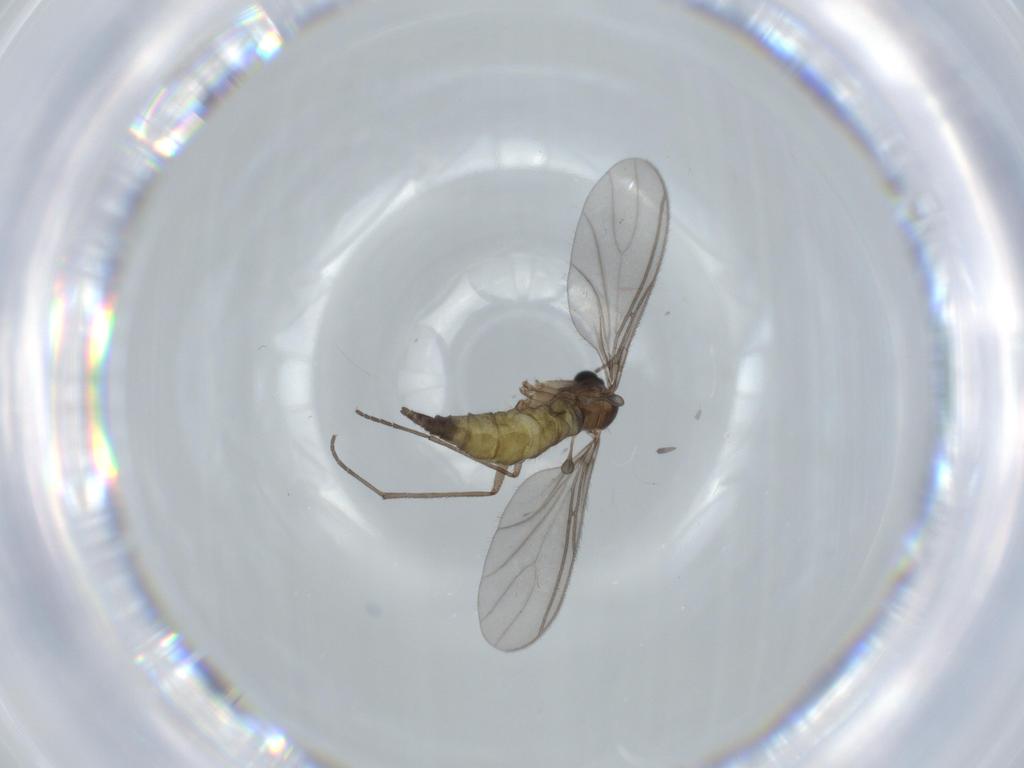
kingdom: Animalia
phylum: Arthropoda
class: Insecta
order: Diptera
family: Sciaridae
